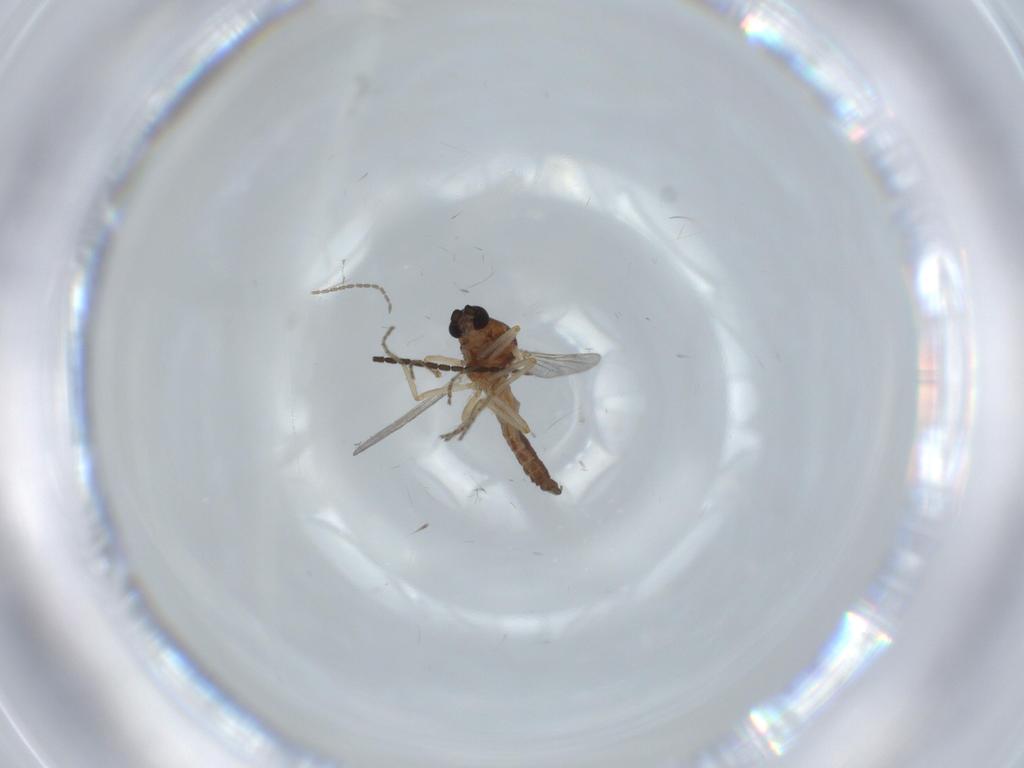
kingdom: Animalia
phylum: Arthropoda
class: Insecta
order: Diptera
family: Sciaridae
